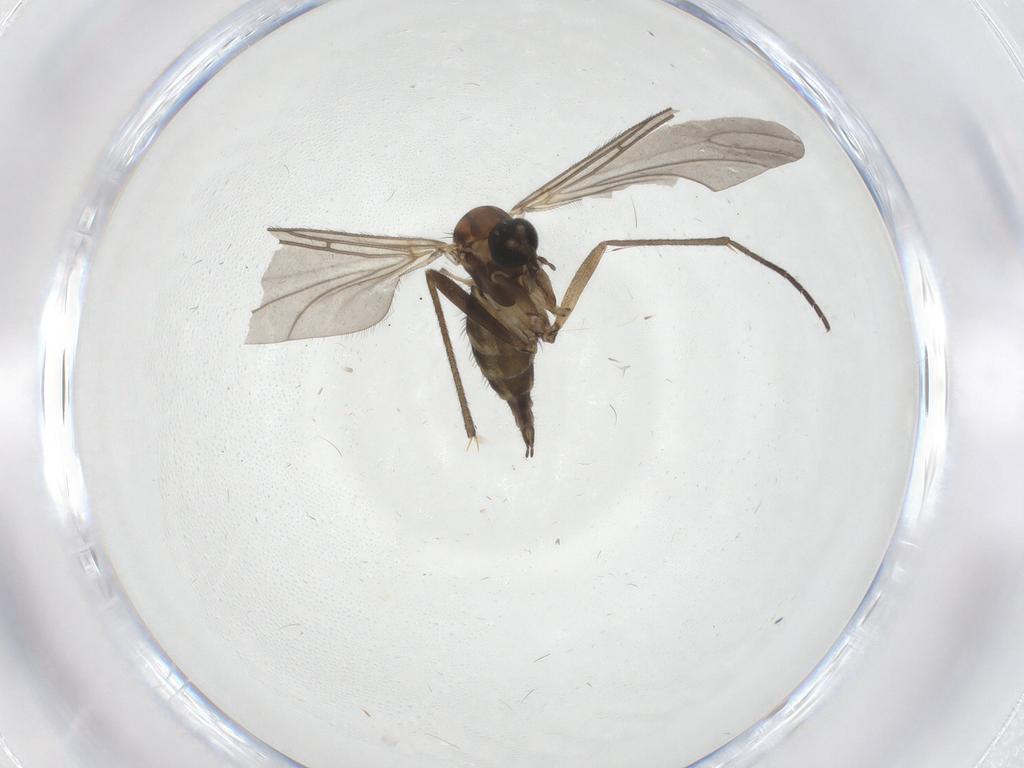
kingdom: Animalia
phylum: Arthropoda
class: Insecta
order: Diptera
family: Sciaridae
